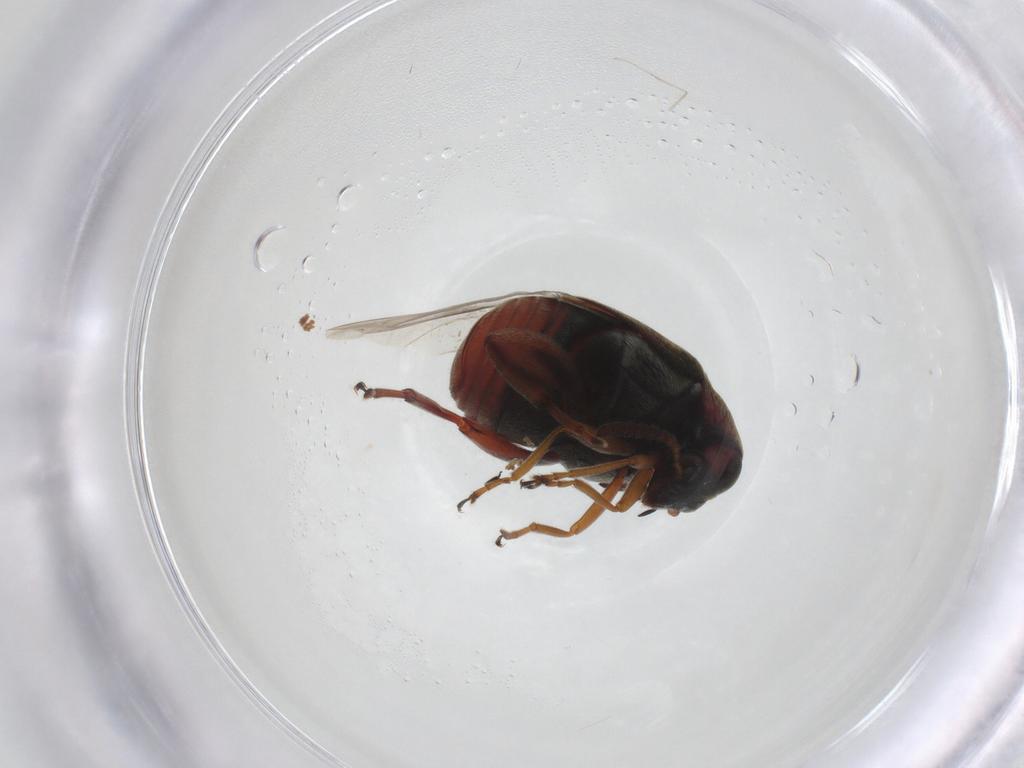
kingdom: Animalia
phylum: Arthropoda
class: Insecta
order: Coleoptera
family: Chrysomelidae
